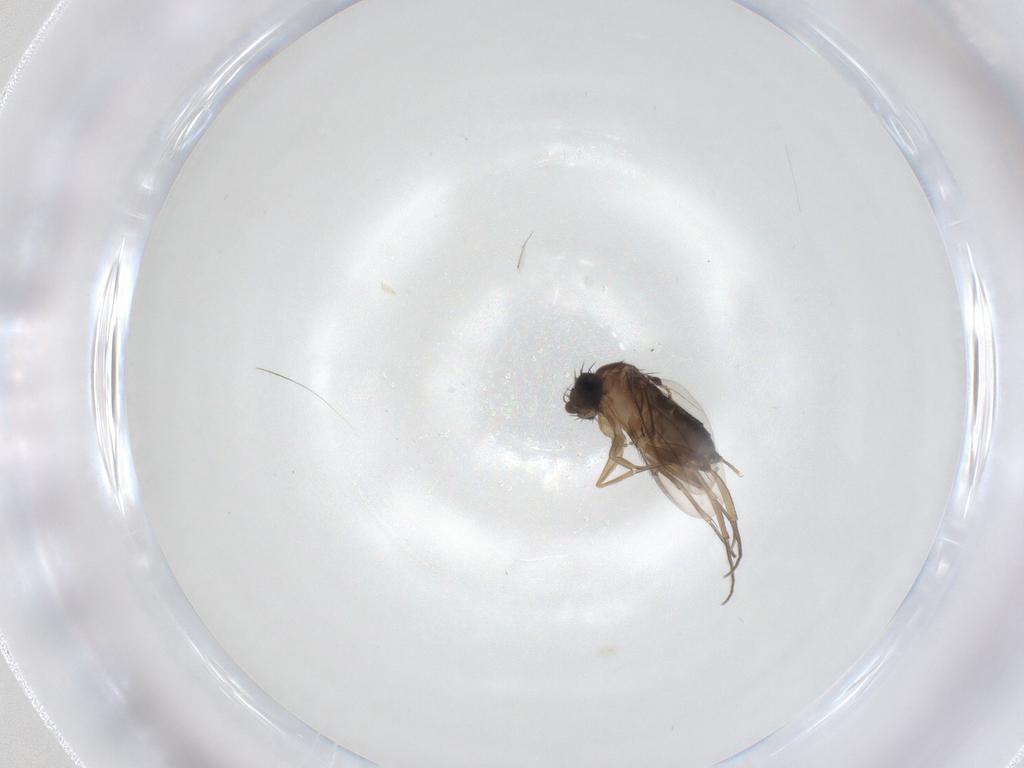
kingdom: Animalia
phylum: Arthropoda
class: Insecta
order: Diptera
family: Cecidomyiidae
